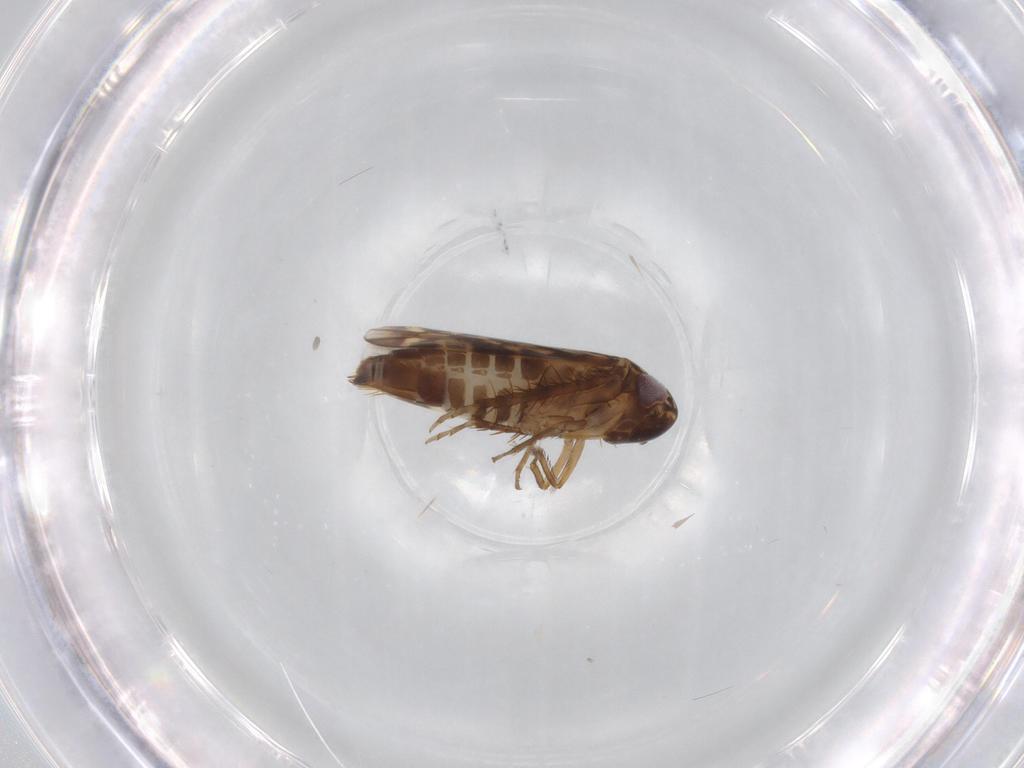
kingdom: Animalia
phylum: Arthropoda
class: Insecta
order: Hemiptera
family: Cicadellidae
